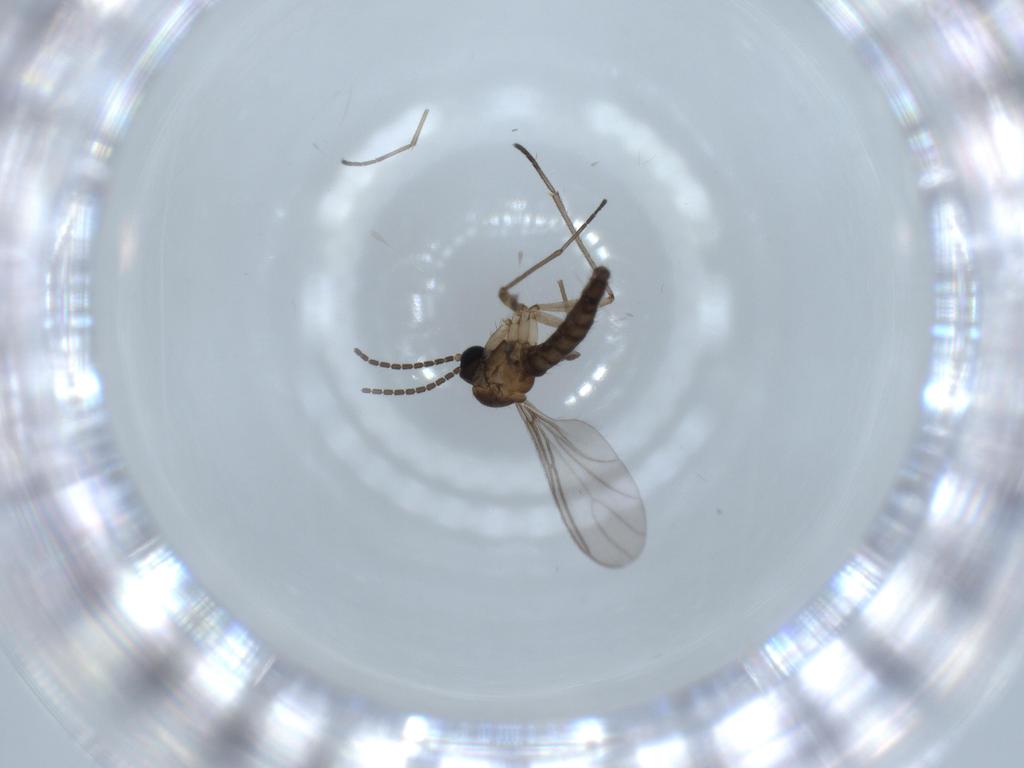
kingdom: Animalia
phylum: Arthropoda
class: Insecta
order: Diptera
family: Sciaridae
